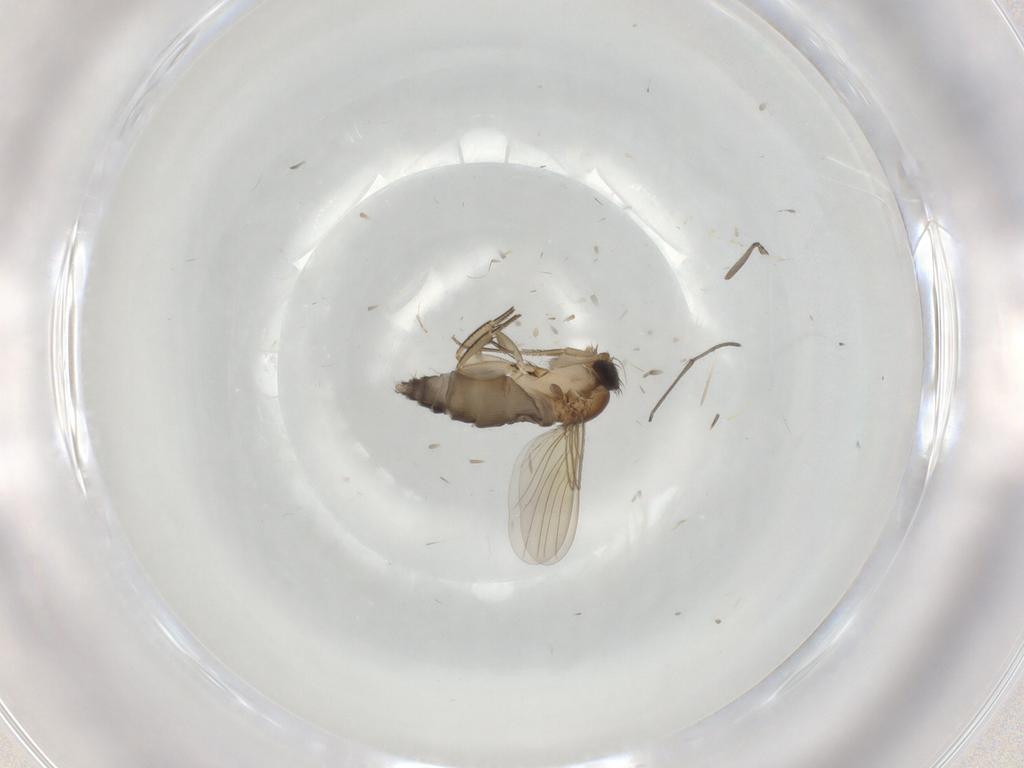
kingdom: Animalia
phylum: Arthropoda
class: Insecta
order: Diptera
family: Phoridae
